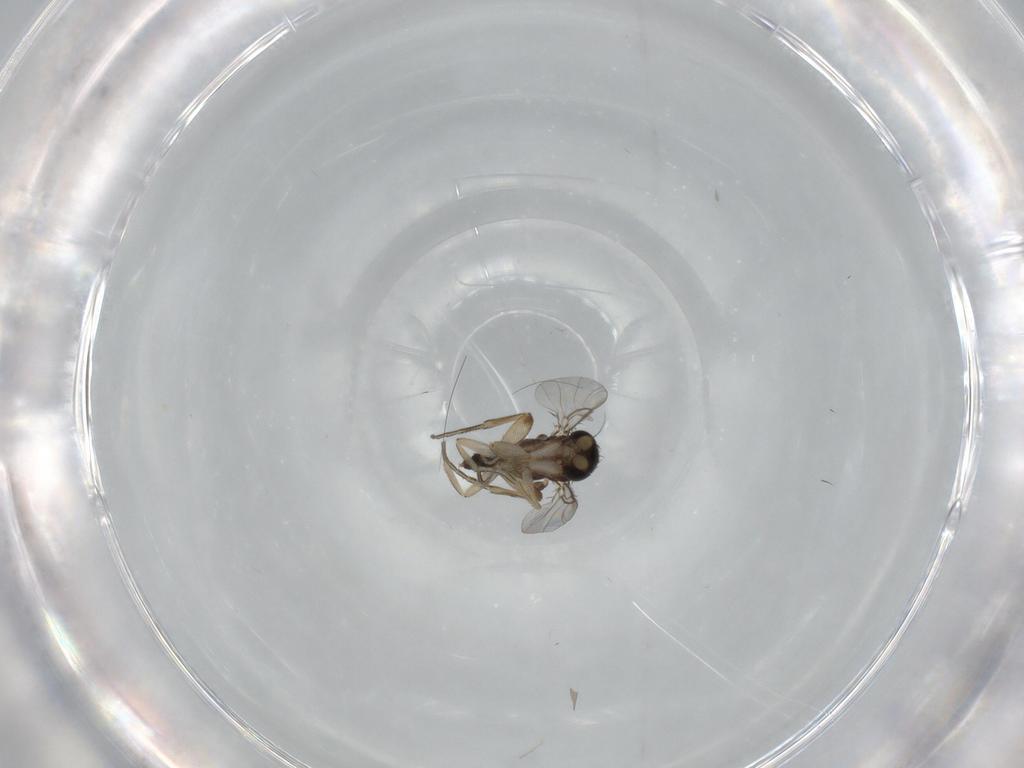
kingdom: Animalia
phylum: Arthropoda
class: Insecta
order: Diptera
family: Phoridae
